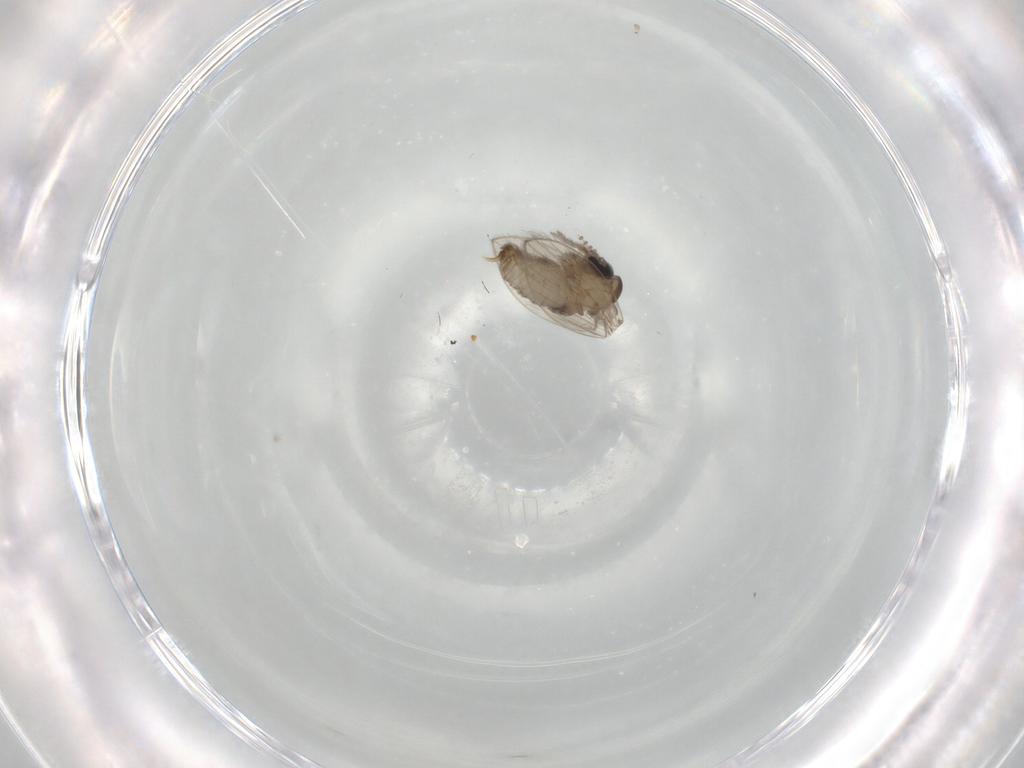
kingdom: Animalia
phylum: Arthropoda
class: Insecta
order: Diptera
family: Psychodidae
